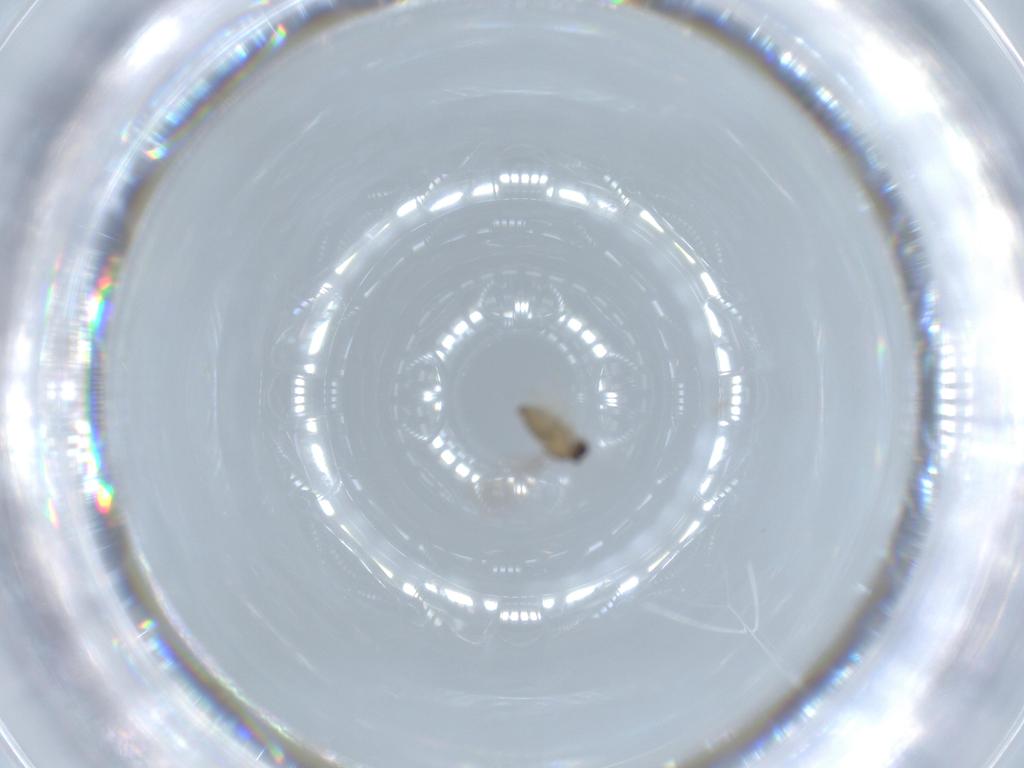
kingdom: Animalia
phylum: Arthropoda
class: Insecta
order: Diptera
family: Cecidomyiidae
